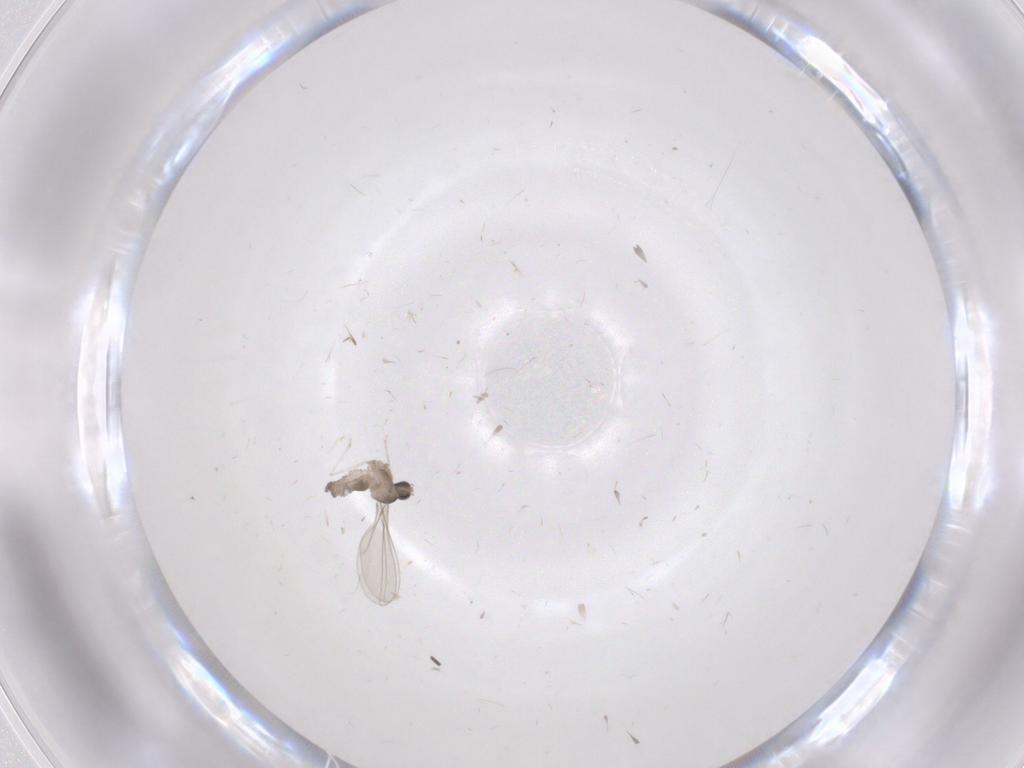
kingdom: Animalia
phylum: Arthropoda
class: Insecta
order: Diptera
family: Cecidomyiidae
